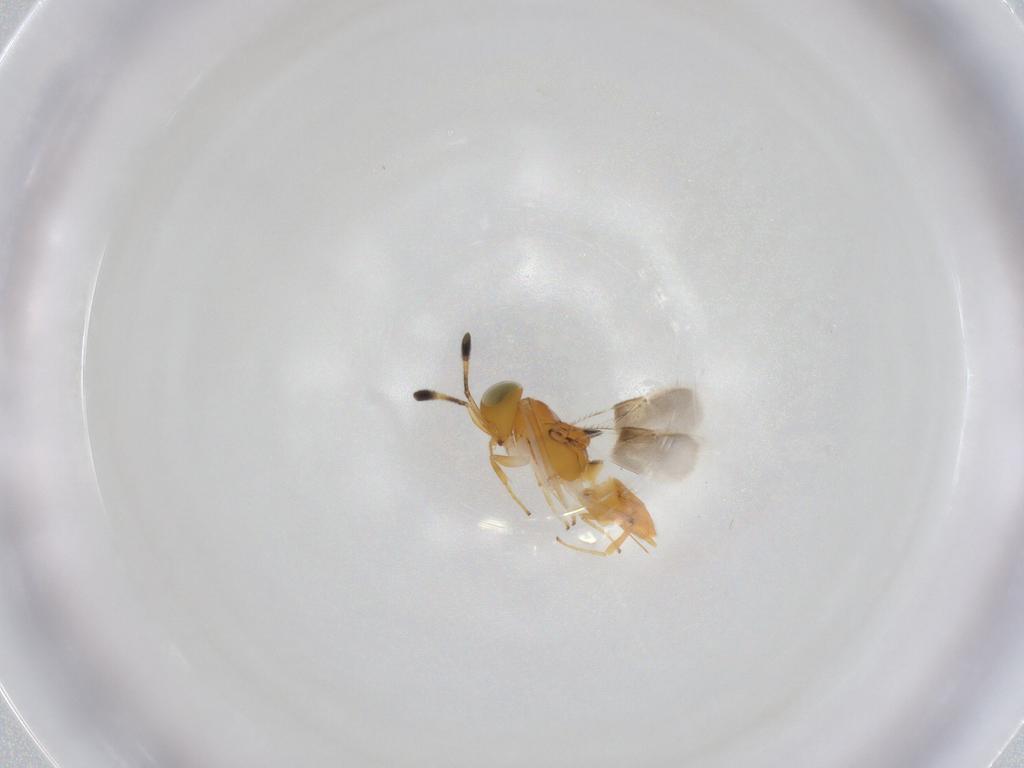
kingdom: Animalia
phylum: Arthropoda
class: Insecta
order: Hymenoptera
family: Encyrtidae
